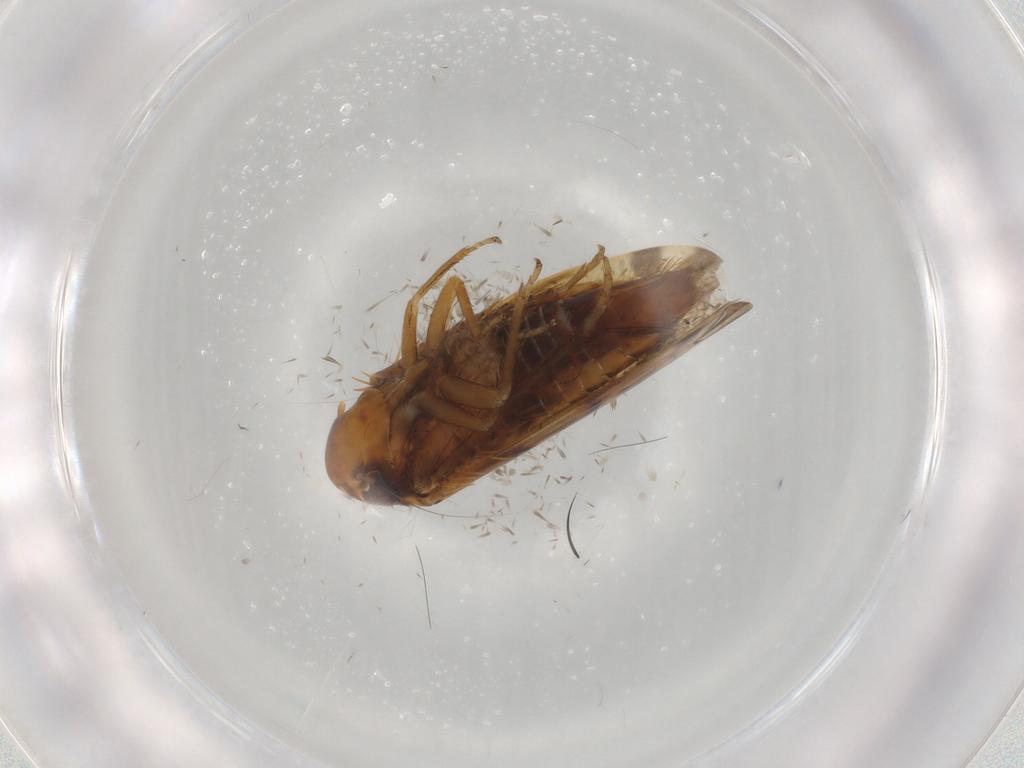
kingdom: Animalia
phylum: Arthropoda
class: Insecta
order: Hemiptera
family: Cicadellidae
